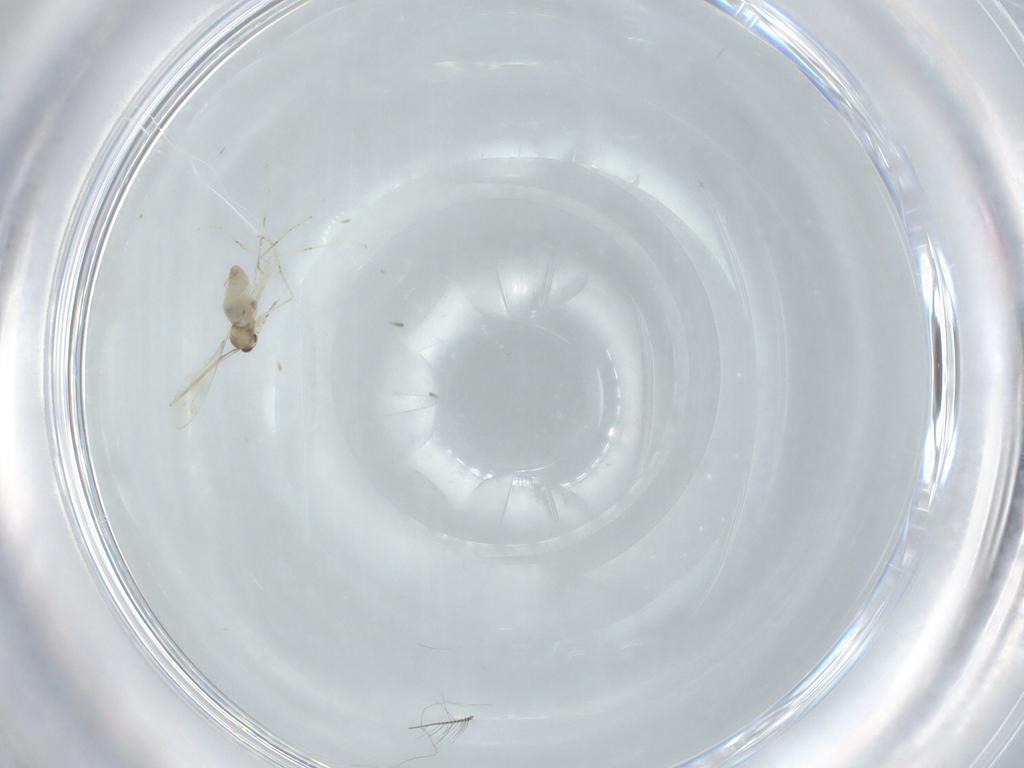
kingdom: Animalia
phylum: Arthropoda
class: Insecta
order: Diptera
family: Cecidomyiidae
